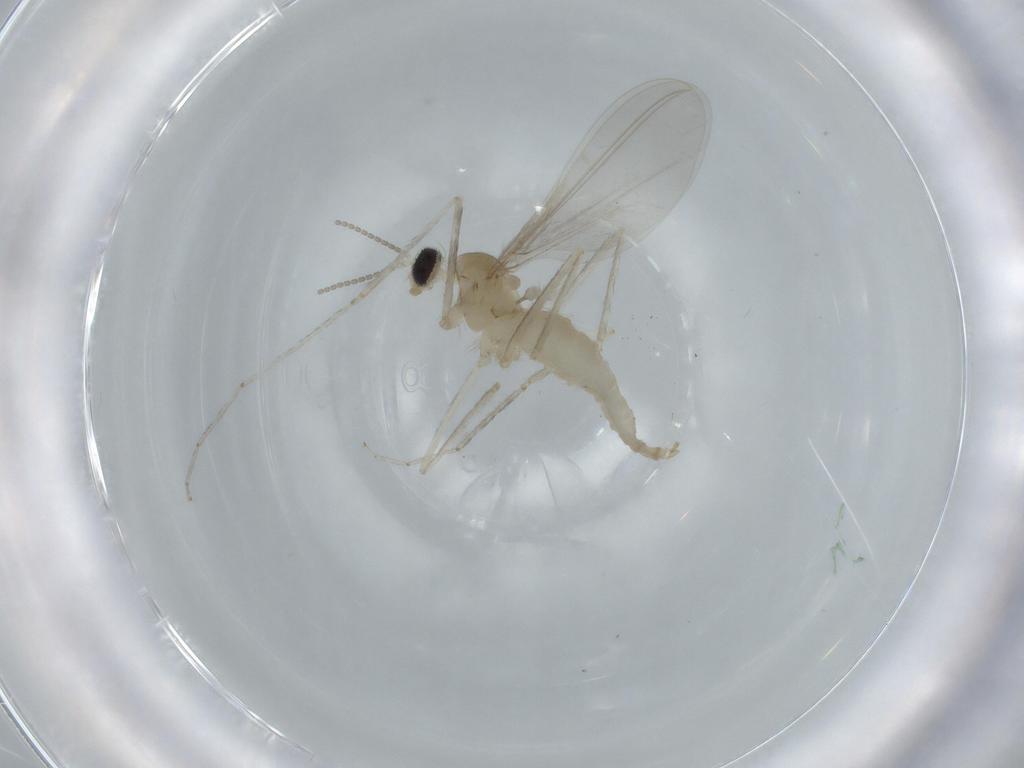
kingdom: Animalia
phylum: Arthropoda
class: Insecta
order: Diptera
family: Cecidomyiidae
